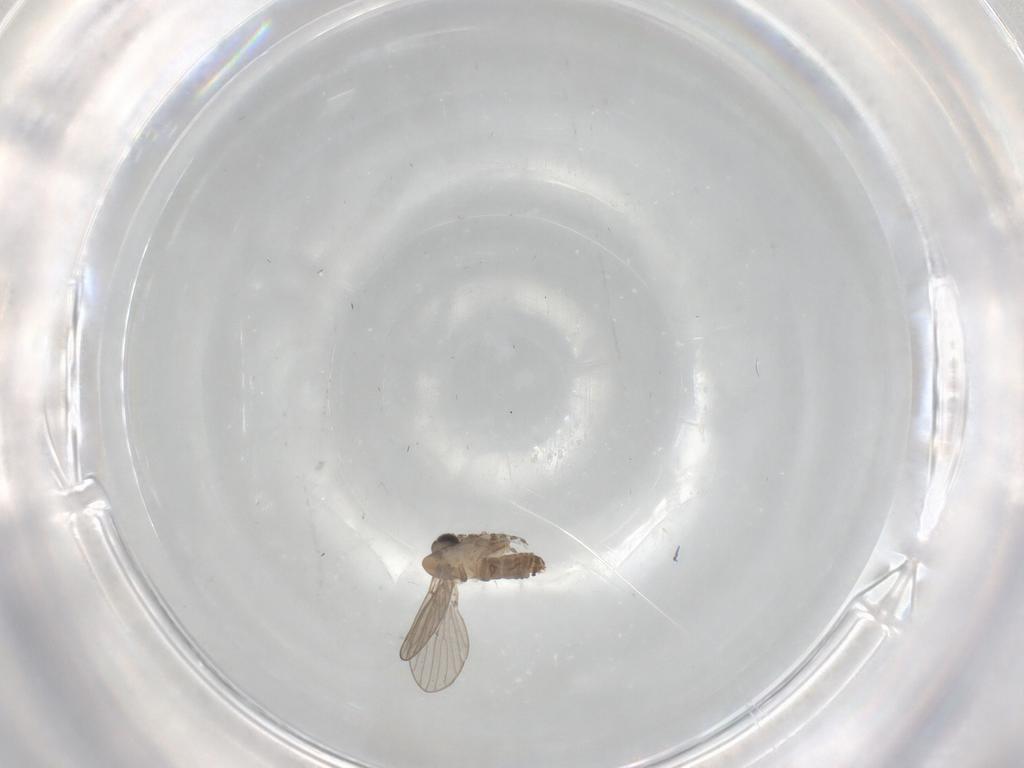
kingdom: Animalia
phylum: Arthropoda
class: Insecta
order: Diptera
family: Psychodidae
